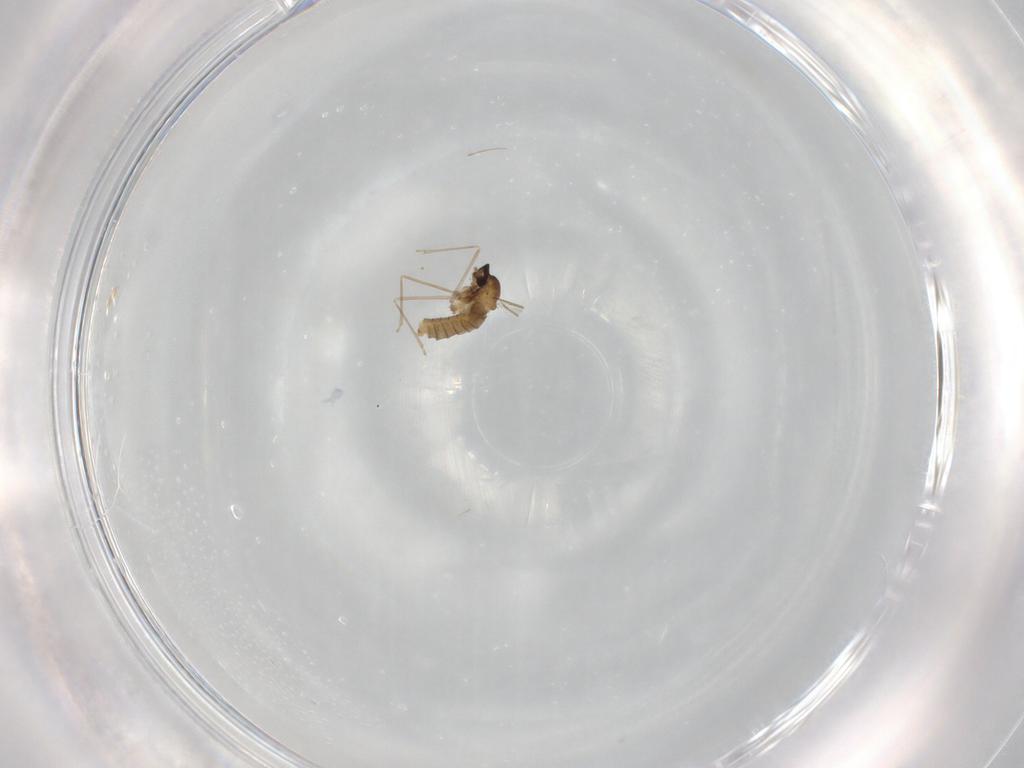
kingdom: Animalia
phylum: Arthropoda
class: Insecta
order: Diptera
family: Cecidomyiidae
